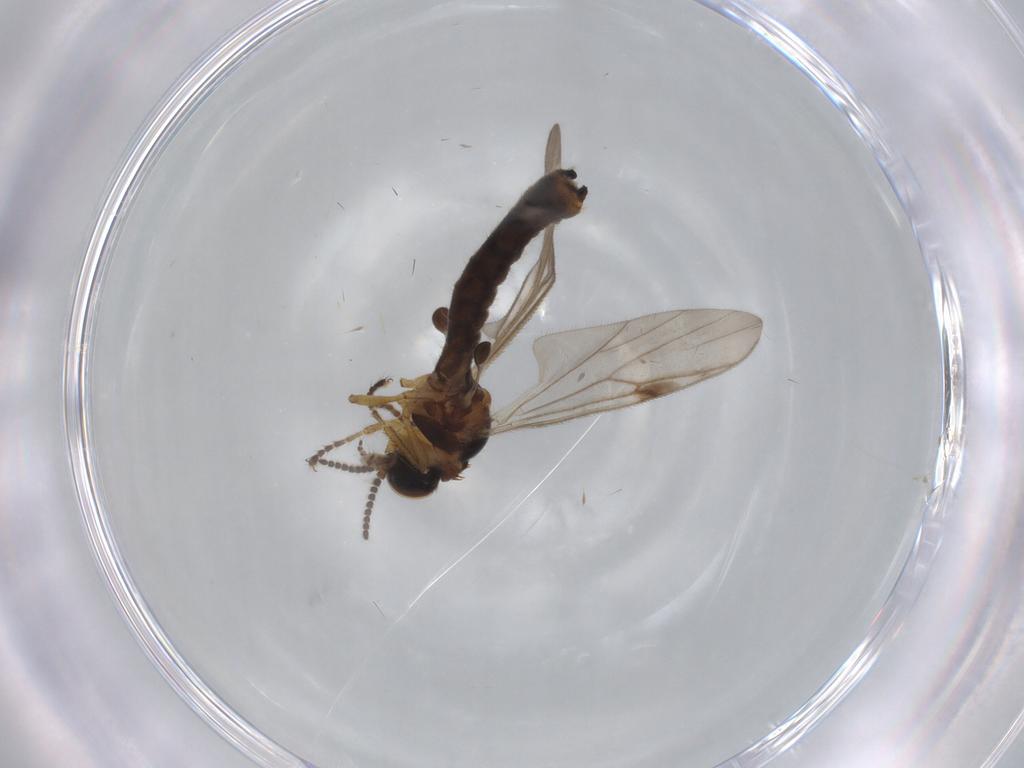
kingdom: Animalia
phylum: Arthropoda
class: Insecta
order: Diptera
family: Bibionidae
